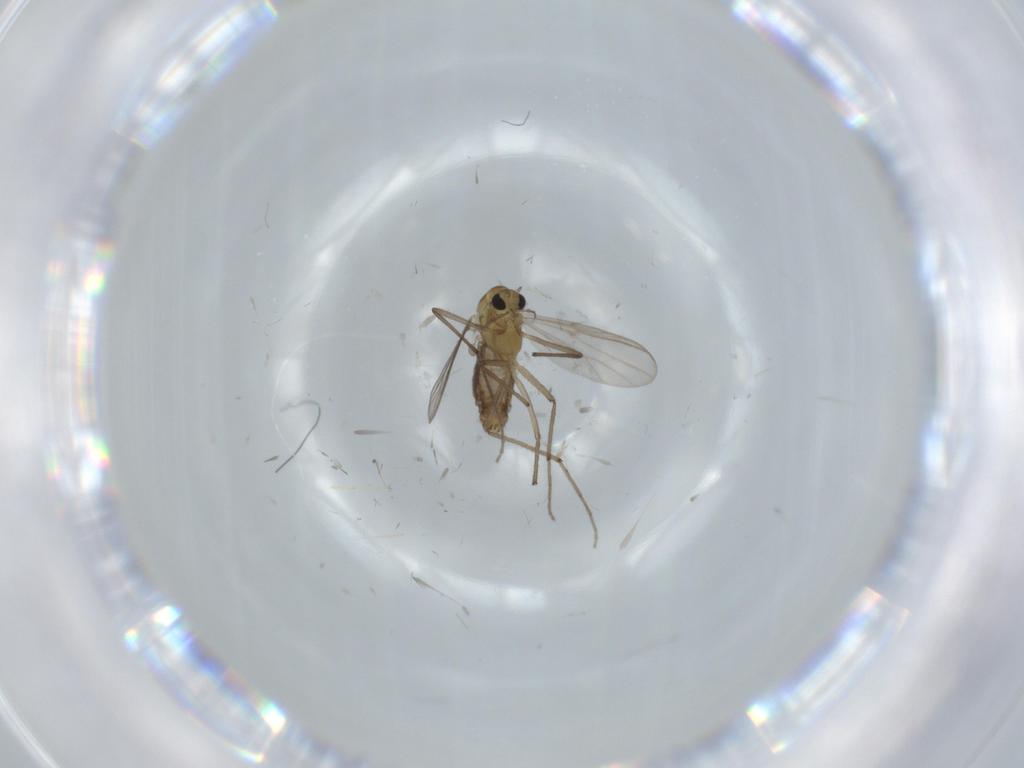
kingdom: Animalia
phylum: Arthropoda
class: Insecta
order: Diptera
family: Chironomidae
